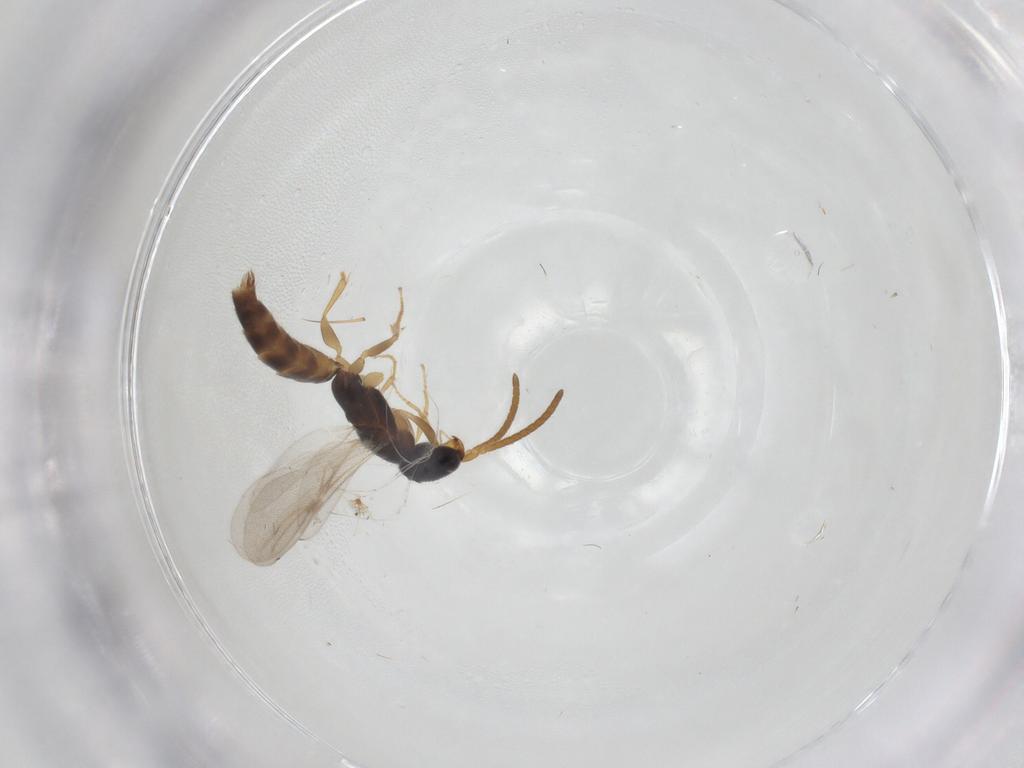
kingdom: Animalia
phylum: Arthropoda
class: Insecta
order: Hymenoptera
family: Bethylidae
